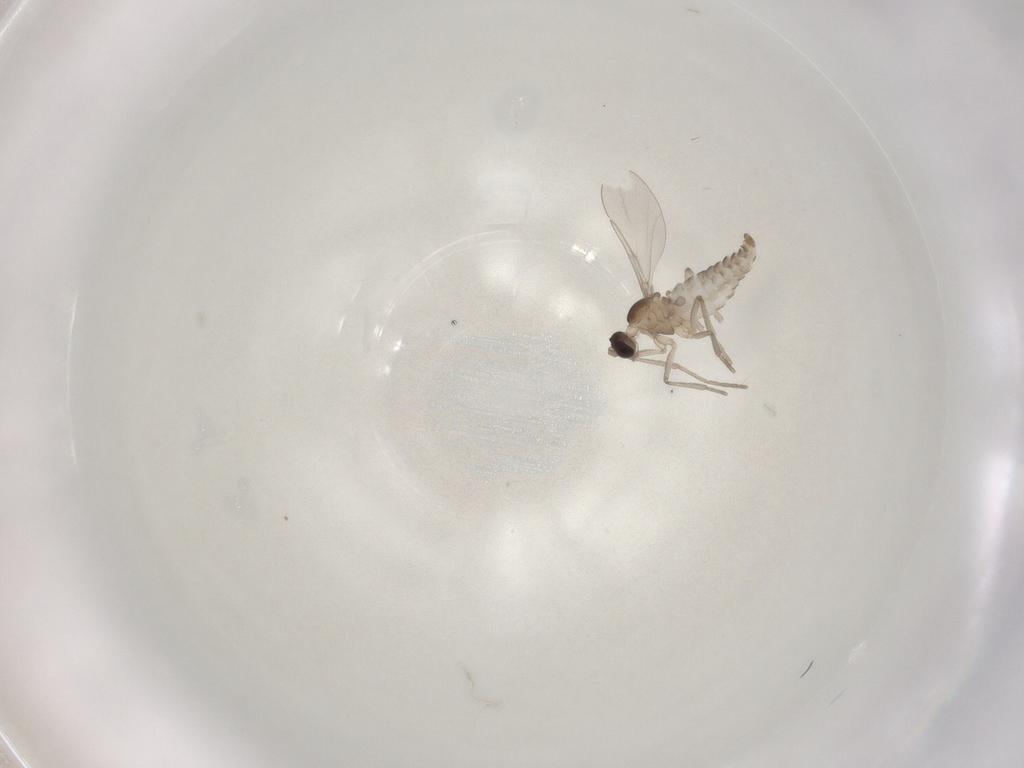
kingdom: Animalia
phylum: Arthropoda
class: Insecta
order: Diptera
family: Cecidomyiidae
